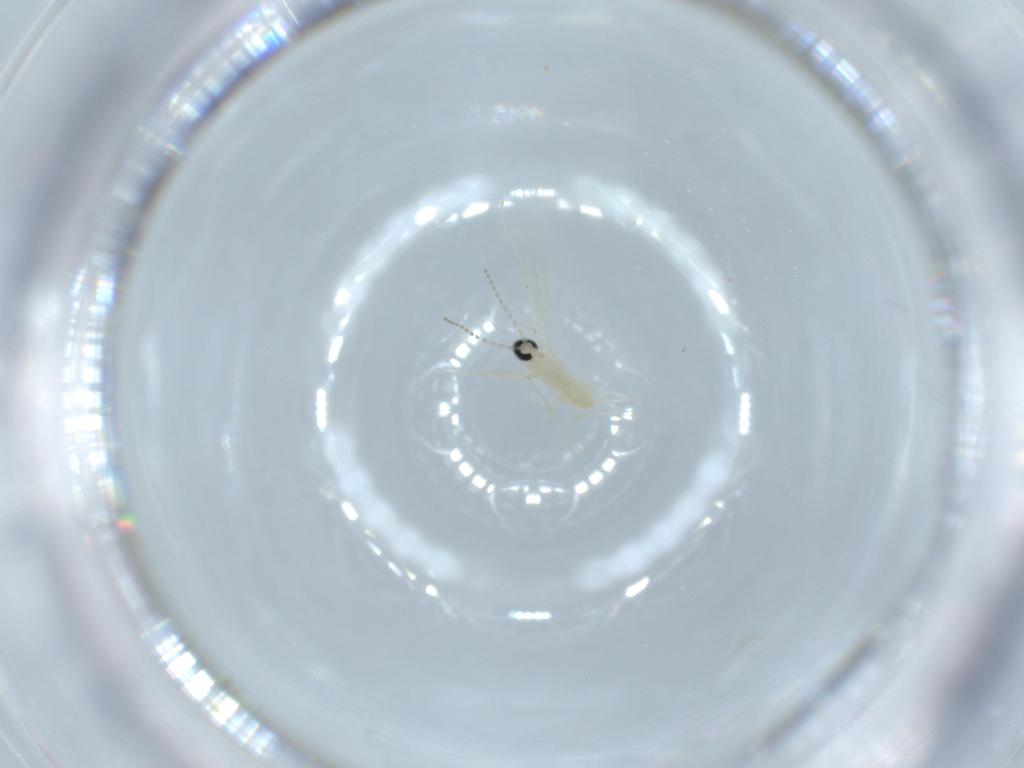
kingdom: Animalia
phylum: Arthropoda
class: Insecta
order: Diptera
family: Cecidomyiidae
